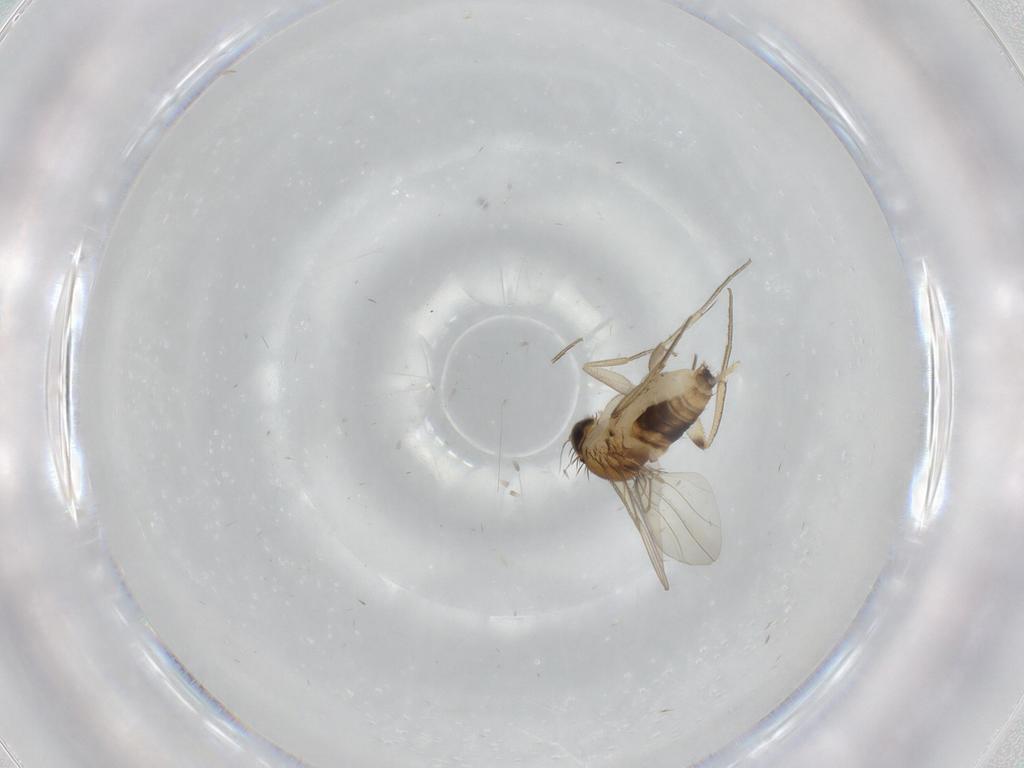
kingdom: Animalia
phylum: Arthropoda
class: Insecta
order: Diptera
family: Phoridae
